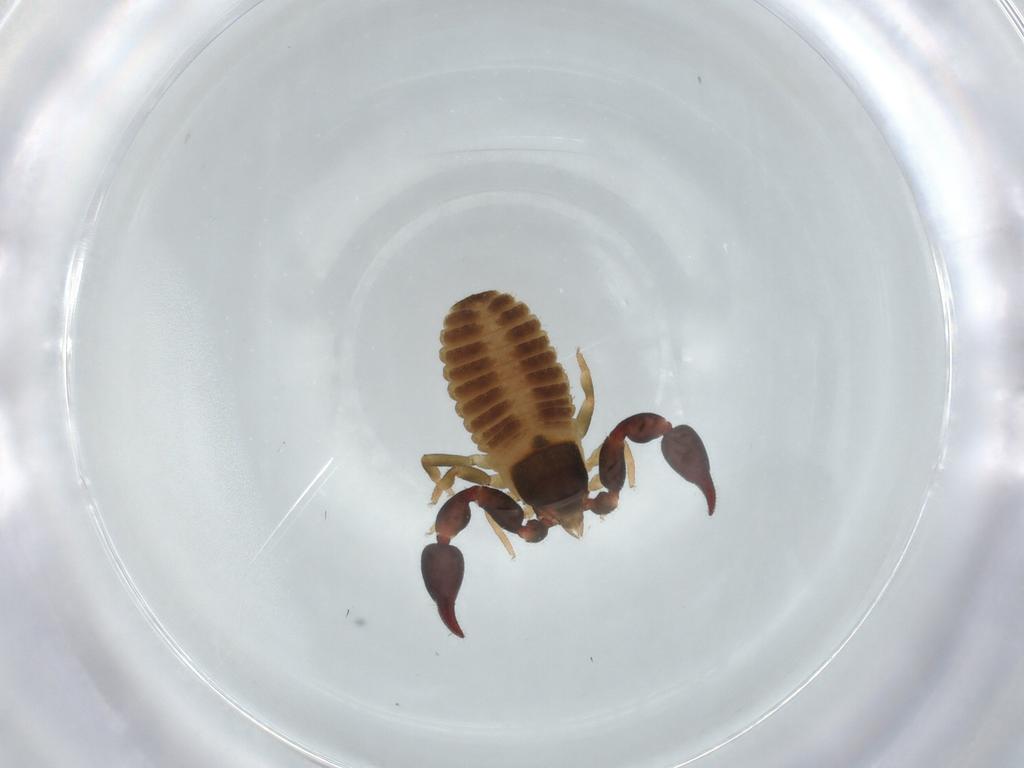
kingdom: Animalia
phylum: Arthropoda
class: Arachnida
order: Pseudoscorpiones
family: Chernetidae
